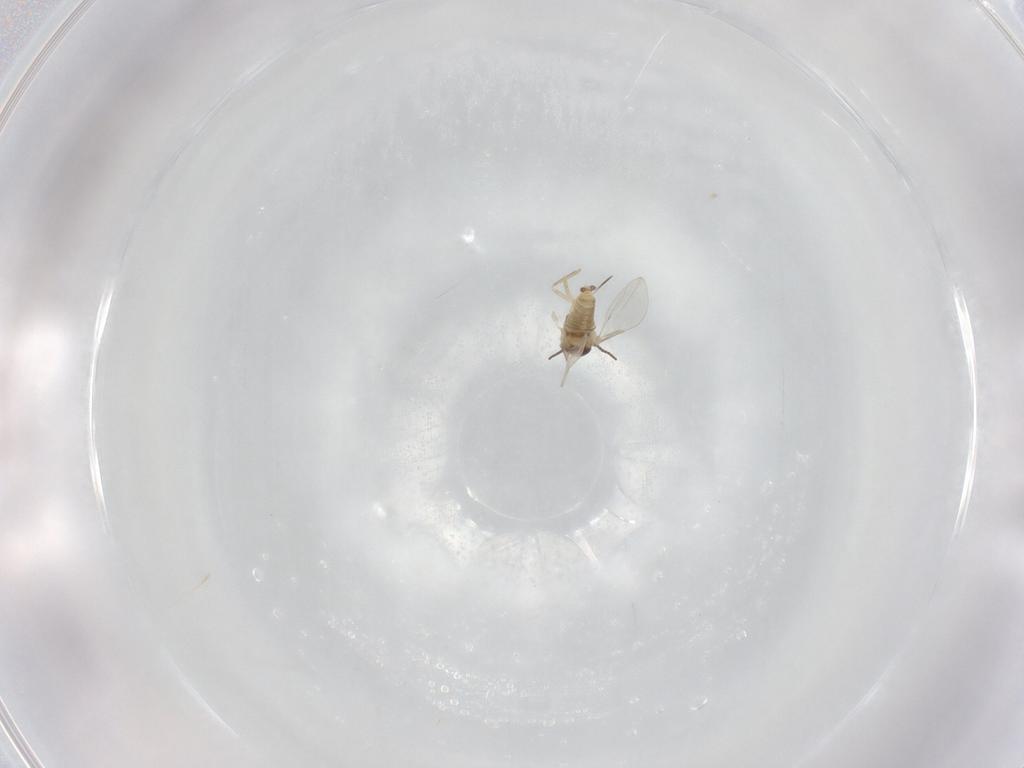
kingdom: Animalia
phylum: Arthropoda
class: Insecta
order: Diptera
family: Cecidomyiidae
